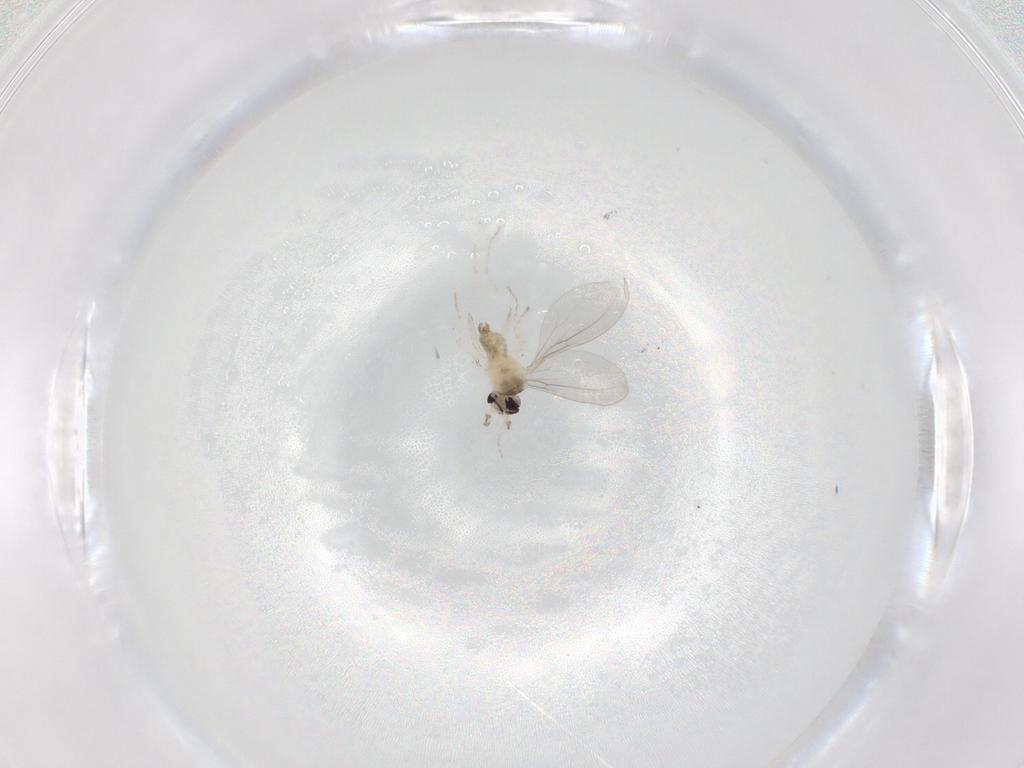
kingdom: Animalia
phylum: Arthropoda
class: Insecta
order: Diptera
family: Cecidomyiidae
